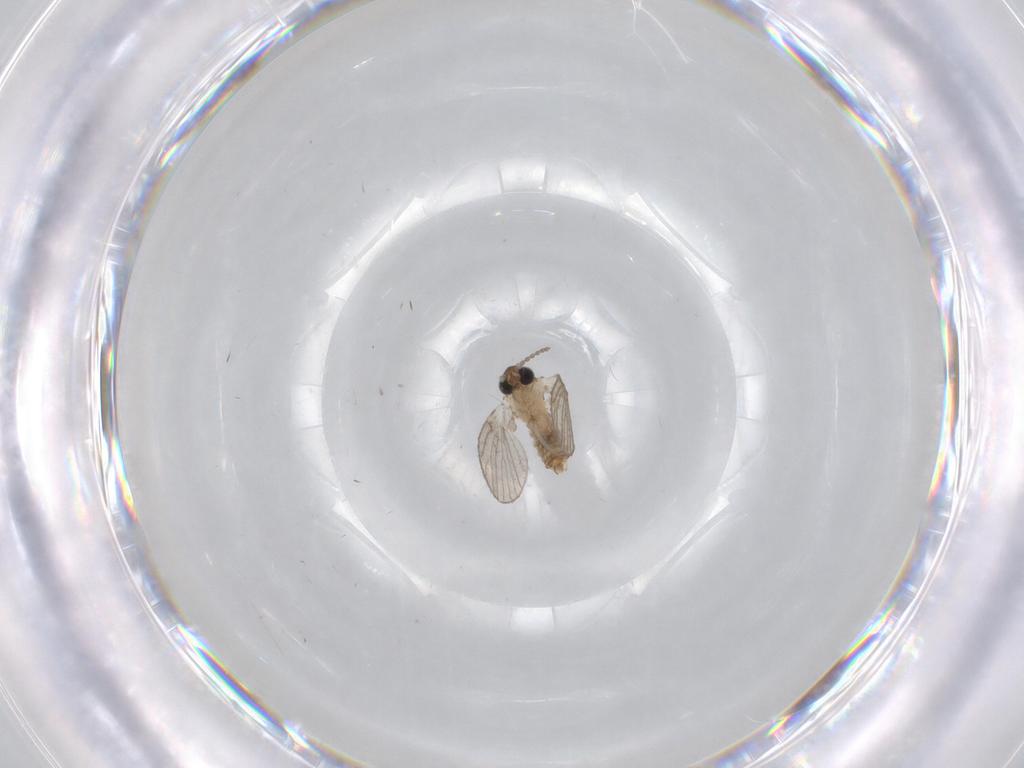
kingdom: Animalia
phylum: Arthropoda
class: Insecta
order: Diptera
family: Psychodidae
